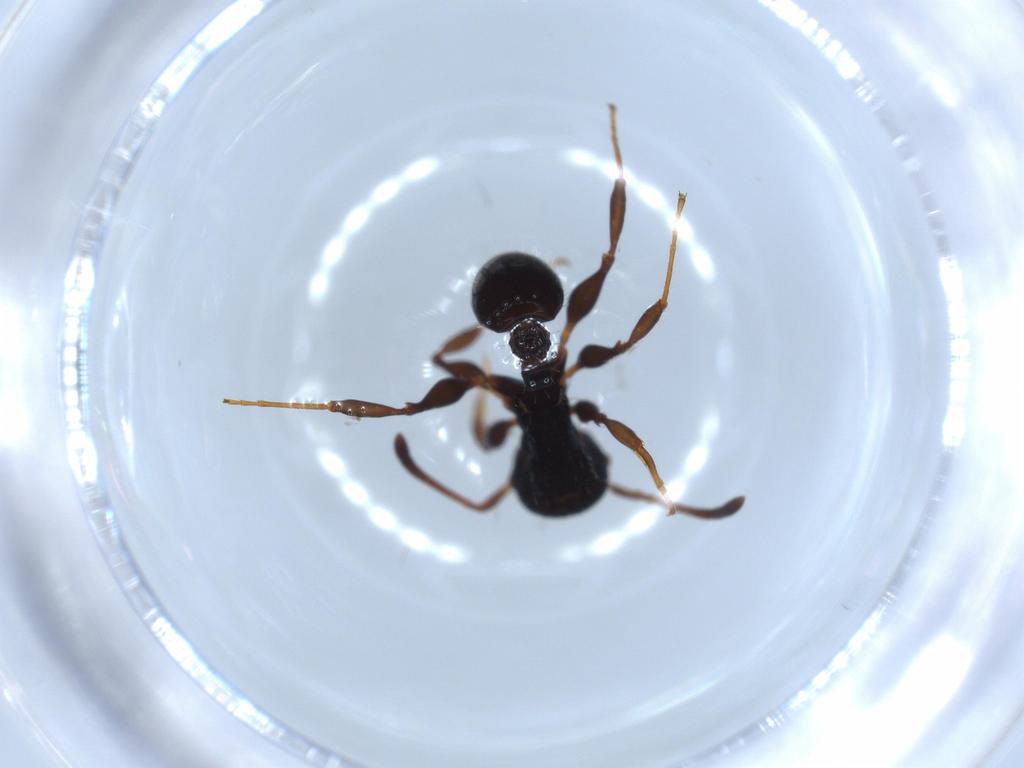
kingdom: Animalia
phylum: Arthropoda
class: Insecta
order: Hymenoptera
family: Formicidae
